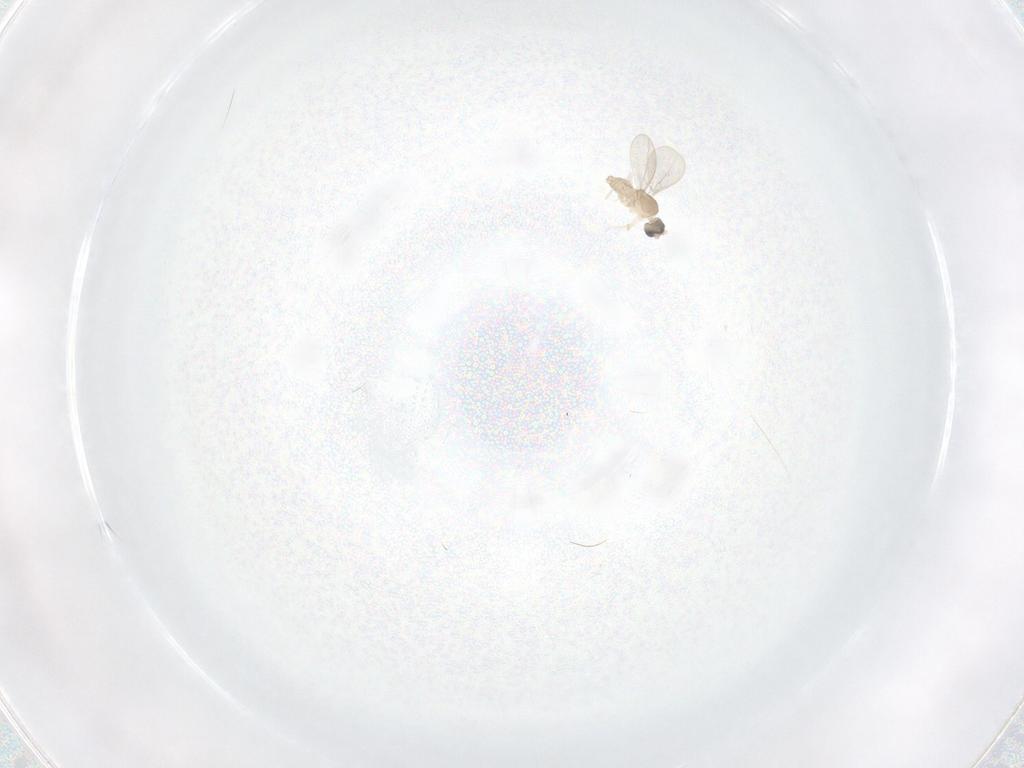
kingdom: Animalia
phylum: Arthropoda
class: Insecta
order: Diptera
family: Cecidomyiidae
